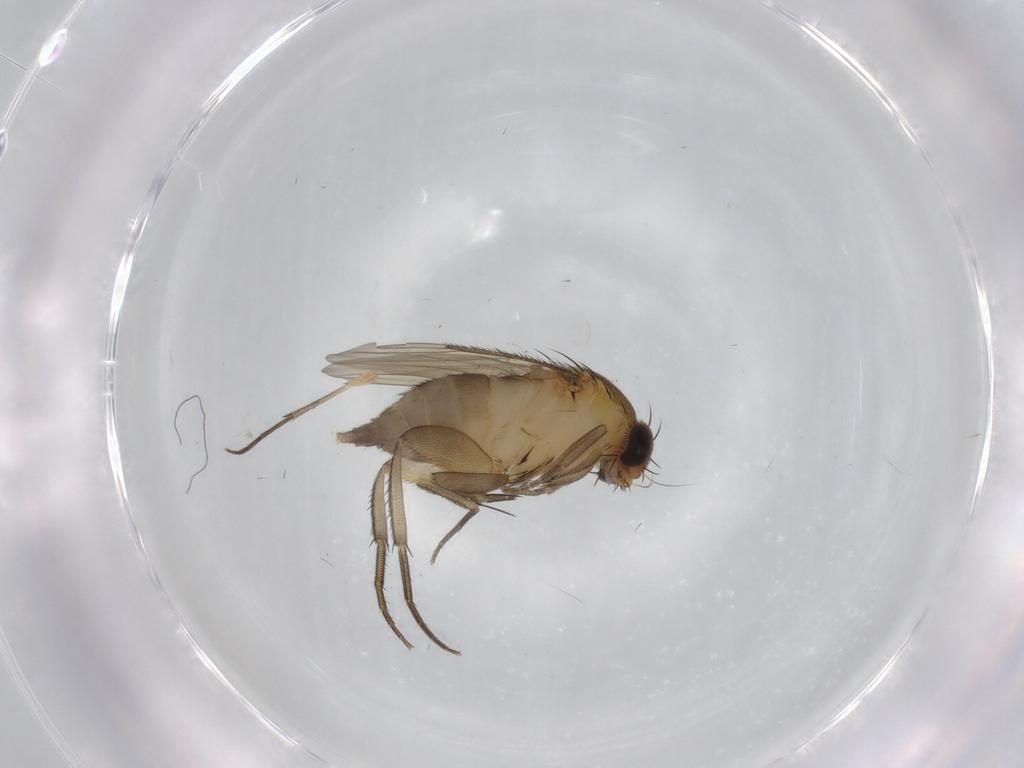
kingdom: Animalia
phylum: Arthropoda
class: Insecta
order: Diptera
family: Phoridae
